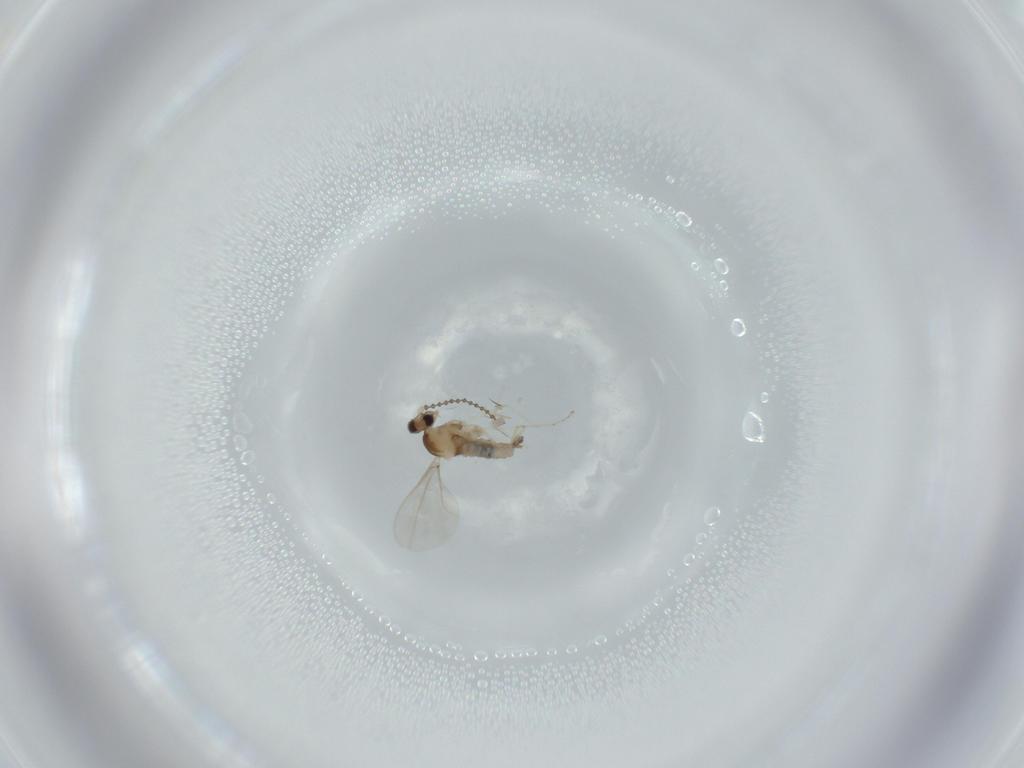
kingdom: Animalia
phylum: Arthropoda
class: Insecta
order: Diptera
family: Cecidomyiidae
